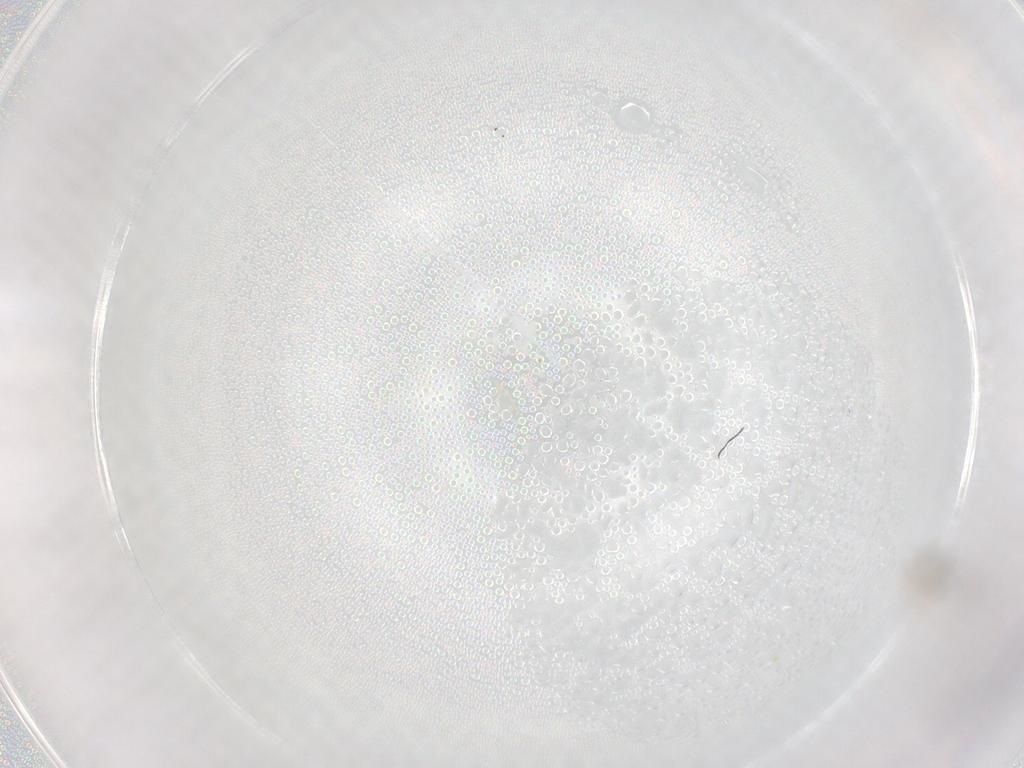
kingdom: Animalia
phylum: Arthropoda
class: Insecta
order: Diptera
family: Cecidomyiidae
